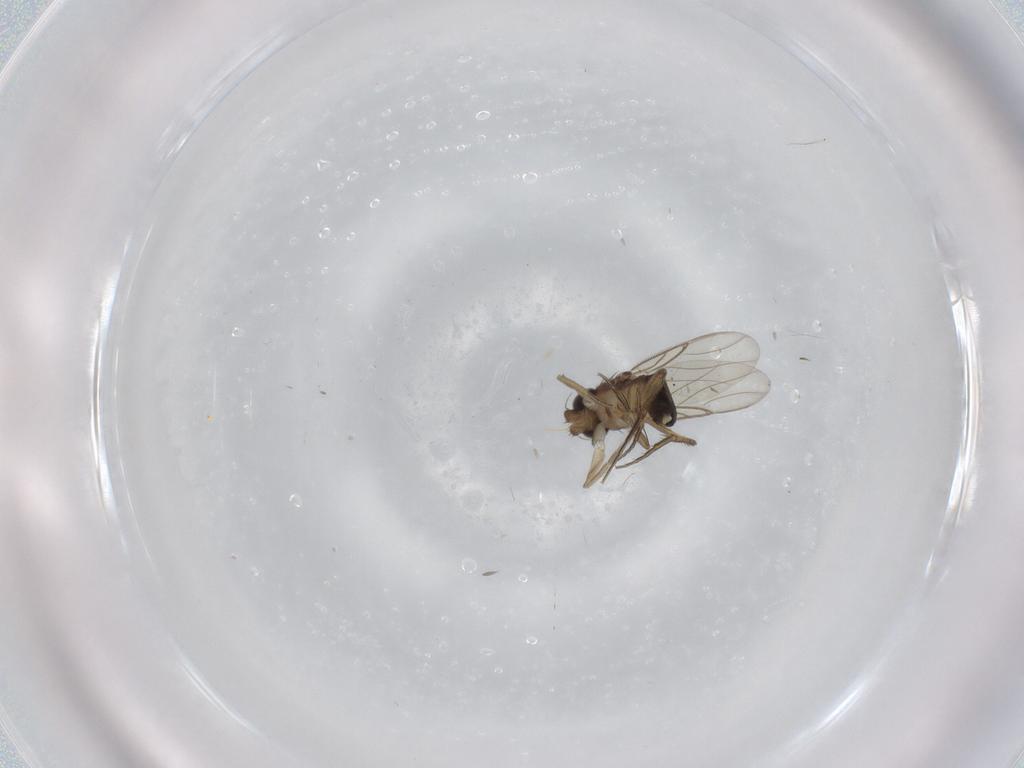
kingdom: Animalia
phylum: Arthropoda
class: Insecta
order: Diptera
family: Phoridae
